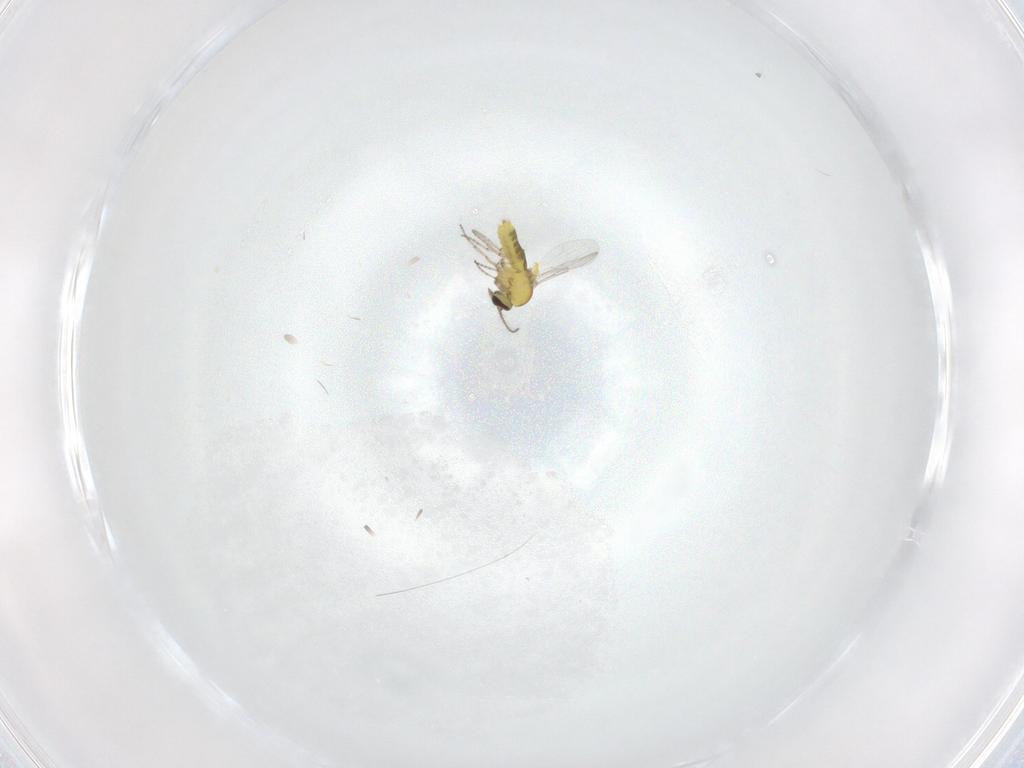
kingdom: Animalia
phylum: Arthropoda
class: Insecta
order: Diptera
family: Ceratopogonidae
